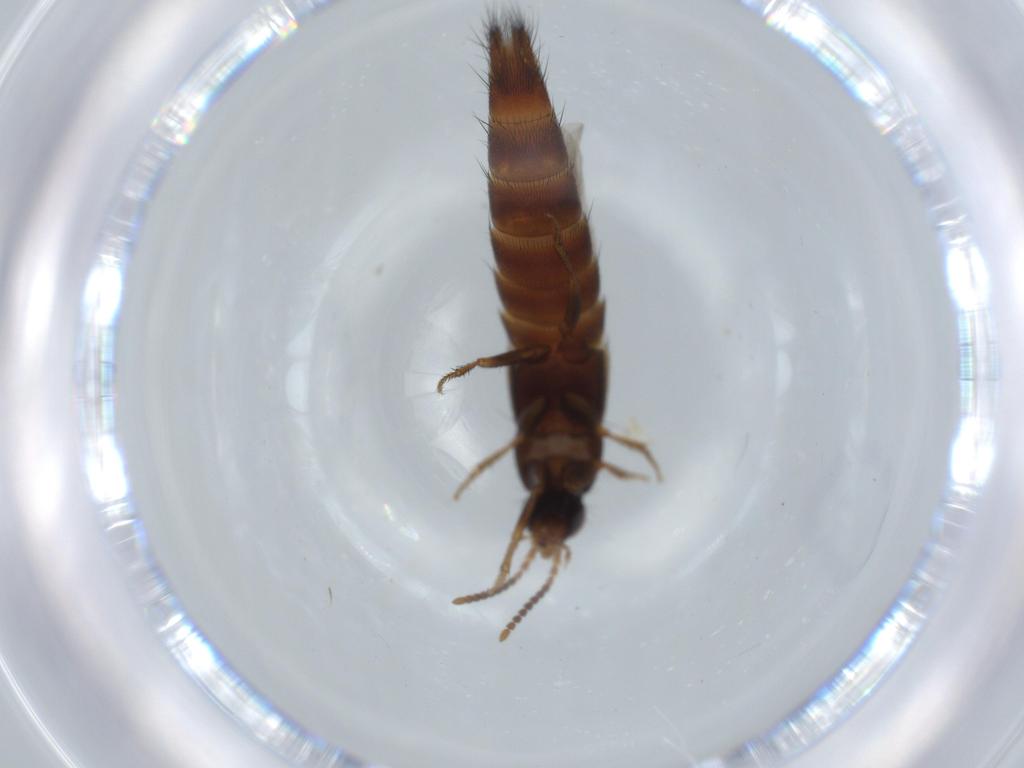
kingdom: Animalia
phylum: Arthropoda
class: Insecta
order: Coleoptera
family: Staphylinidae
